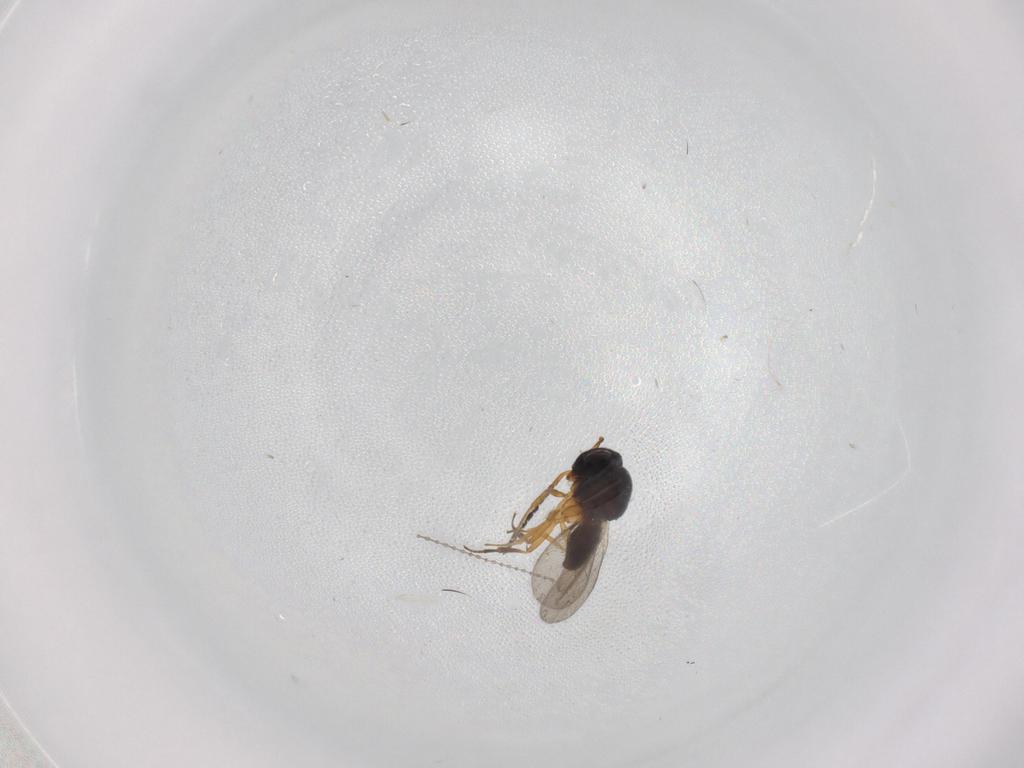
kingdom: Animalia
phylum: Arthropoda
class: Insecta
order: Coleoptera
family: Curculionidae
